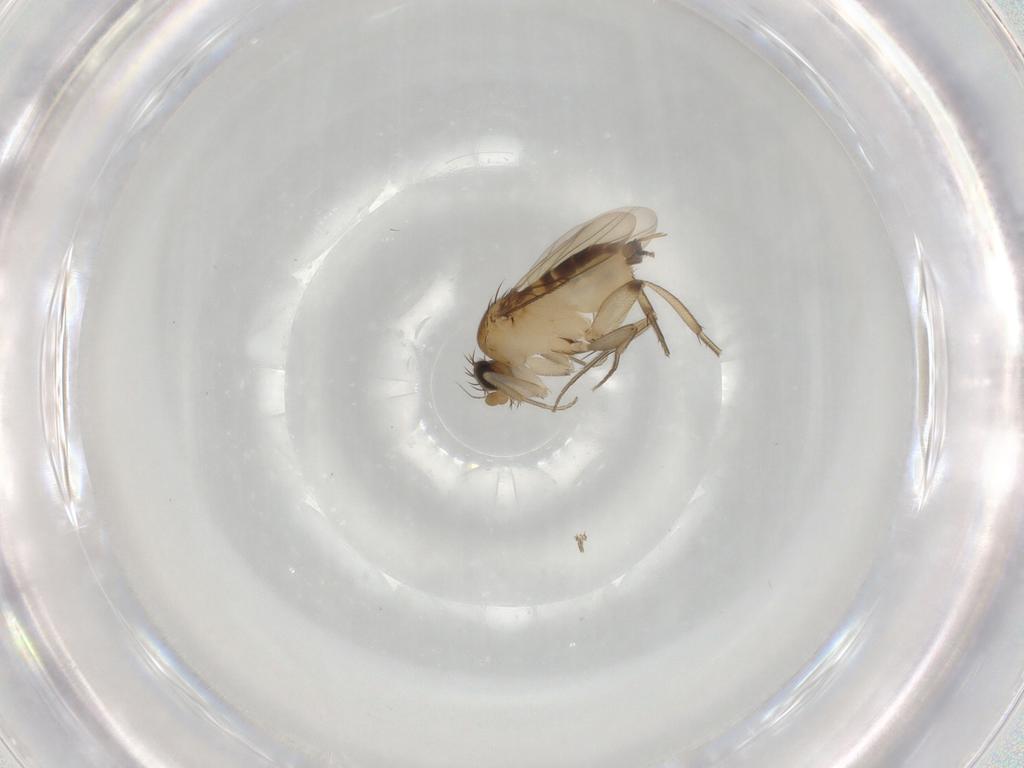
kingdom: Animalia
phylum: Arthropoda
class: Insecta
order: Diptera
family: Phoridae
